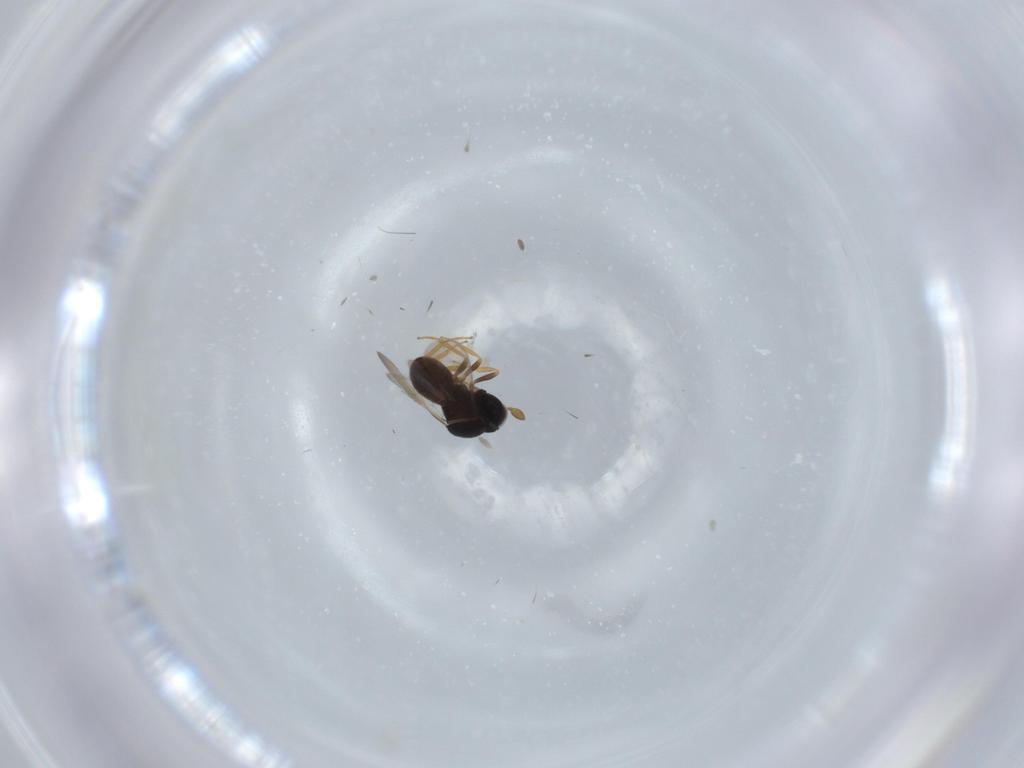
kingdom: Animalia
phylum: Arthropoda
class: Insecta
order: Hymenoptera
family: Scelionidae
